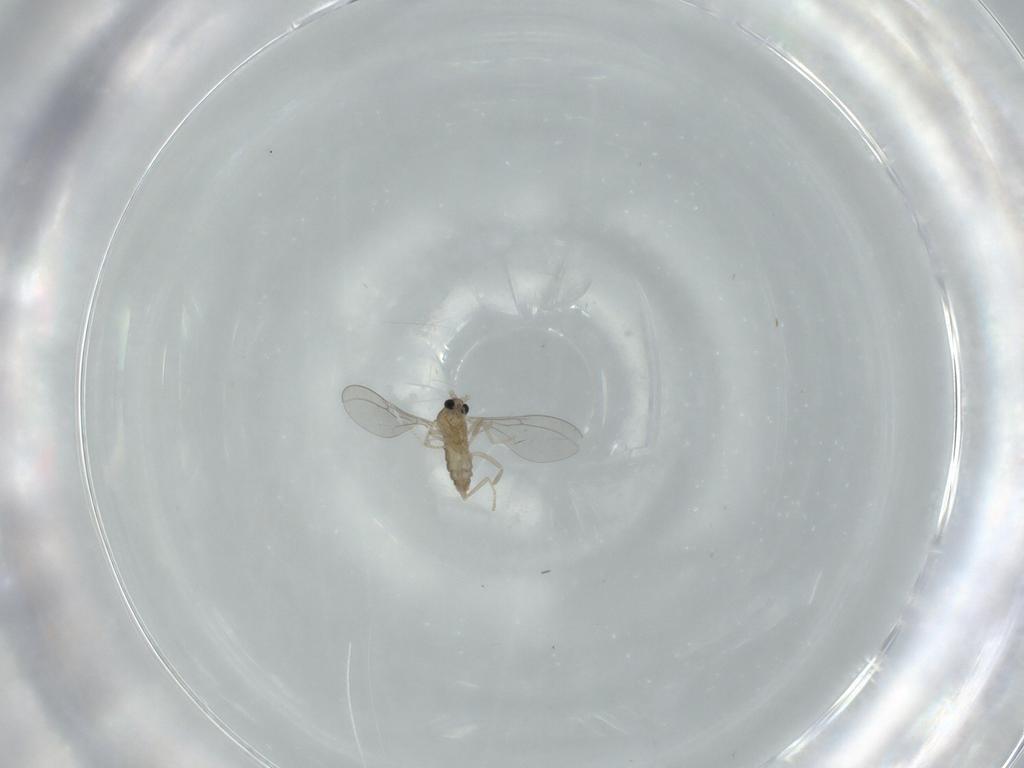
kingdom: Animalia
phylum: Arthropoda
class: Insecta
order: Diptera
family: Cecidomyiidae
